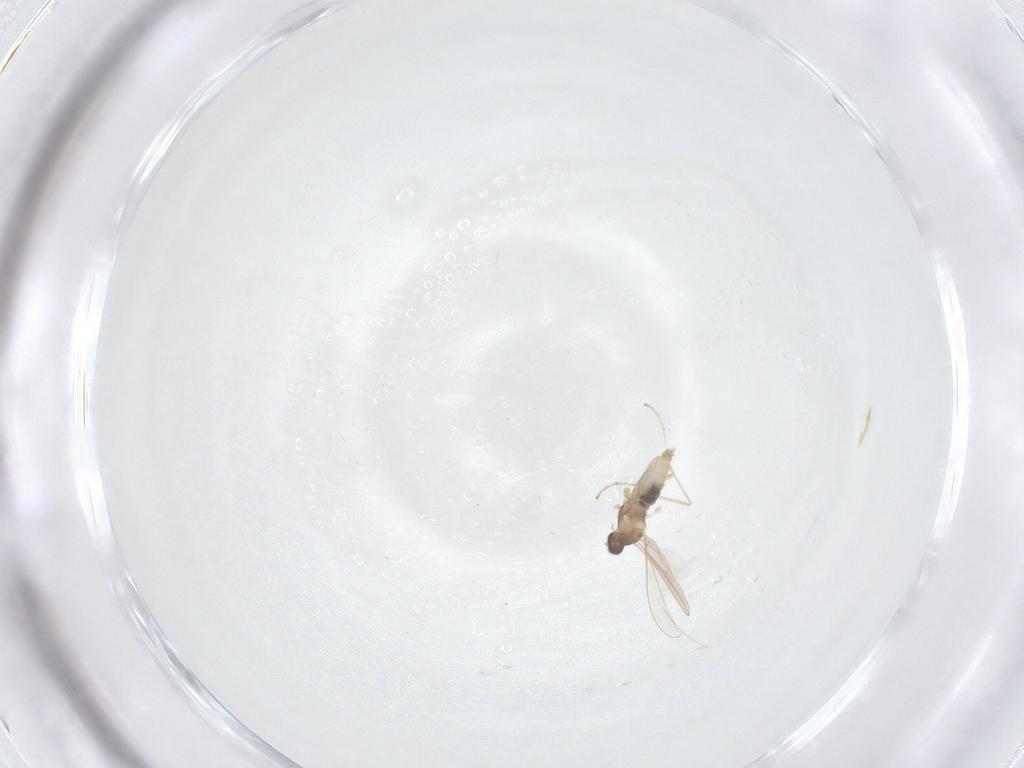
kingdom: Animalia
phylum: Arthropoda
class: Insecta
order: Diptera
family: Cecidomyiidae
